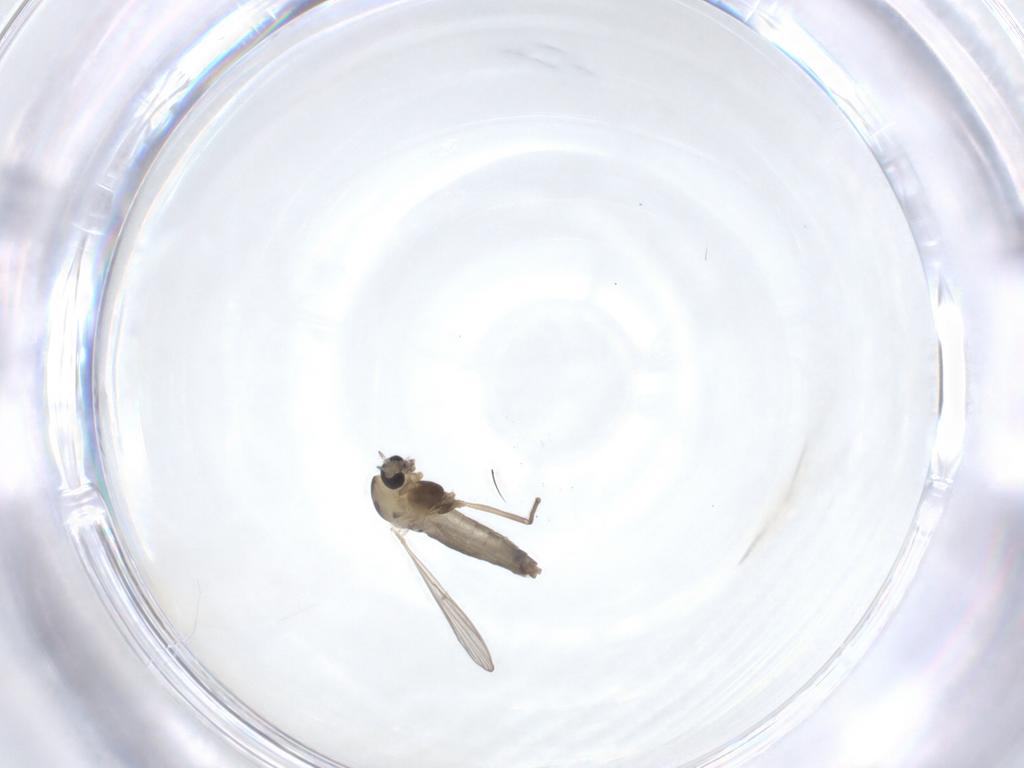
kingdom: Animalia
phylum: Arthropoda
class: Insecta
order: Diptera
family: Chironomidae
